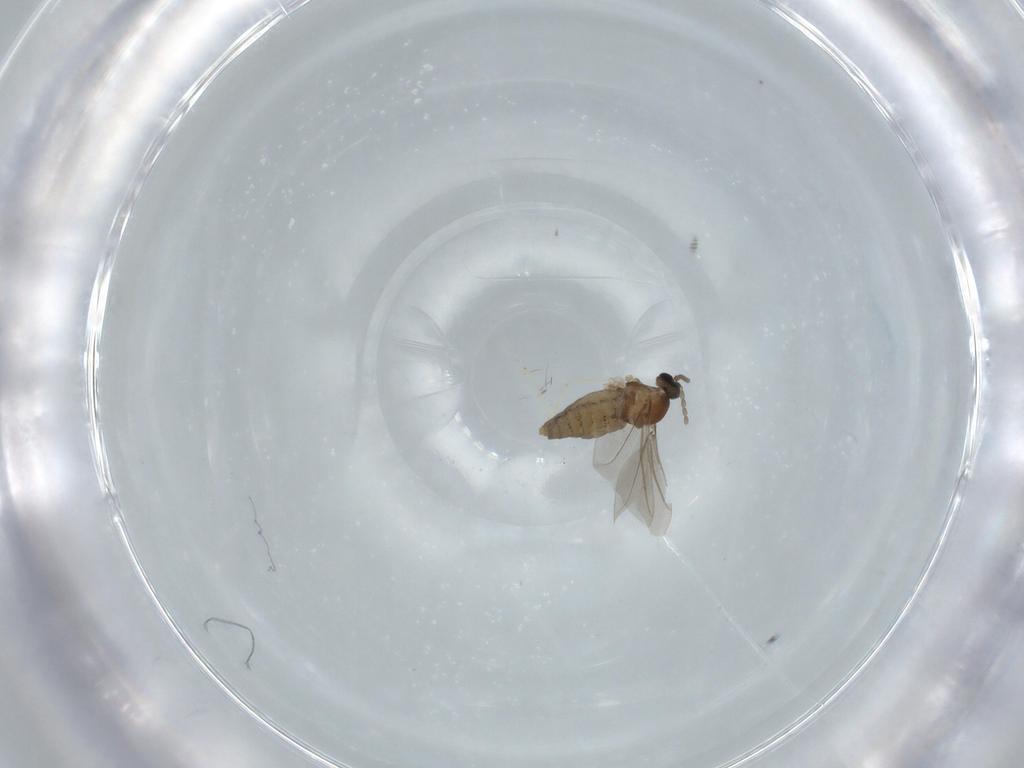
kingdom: Animalia
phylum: Arthropoda
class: Insecta
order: Diptera
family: Cecidomyiidae
